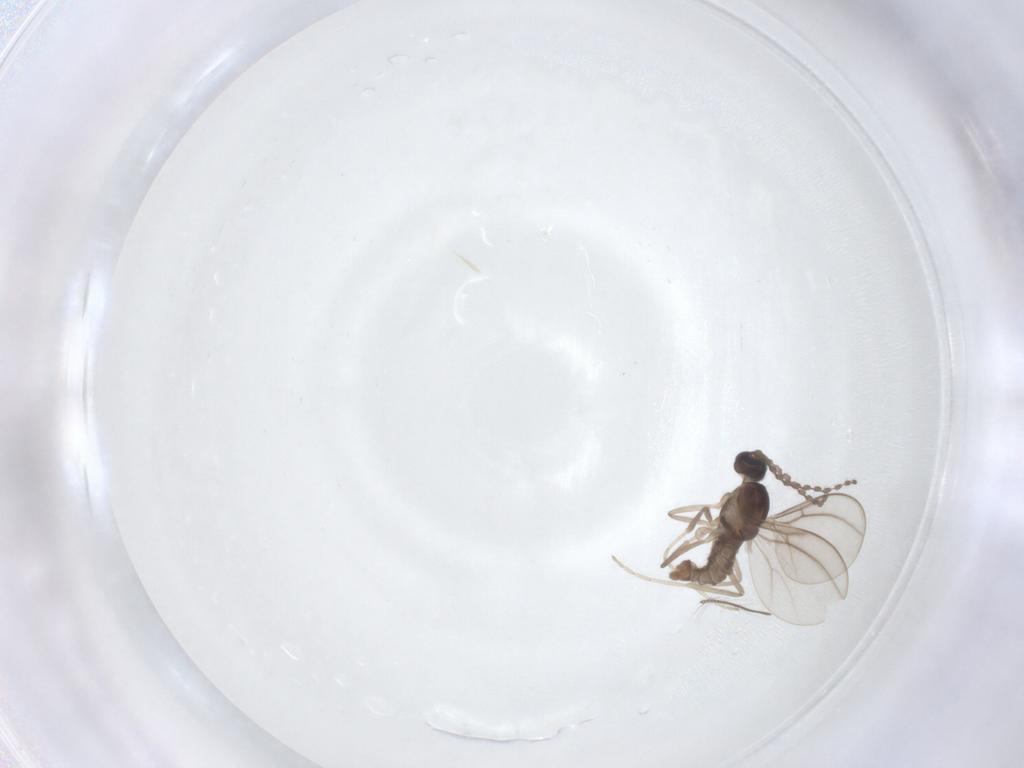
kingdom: Animalia
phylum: Arthropoda
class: Insecta
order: Diptera
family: Cecidomyiidae
